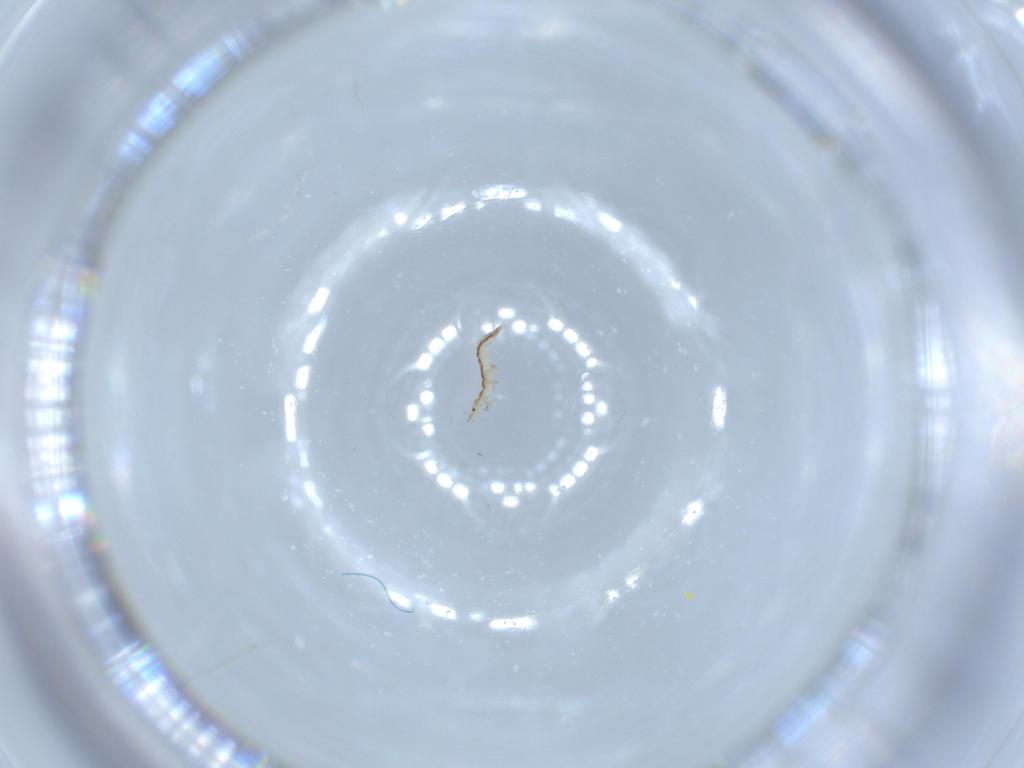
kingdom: Animalia
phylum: Arthropoda
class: Insecta
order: Neuroptera
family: Mantispidae
